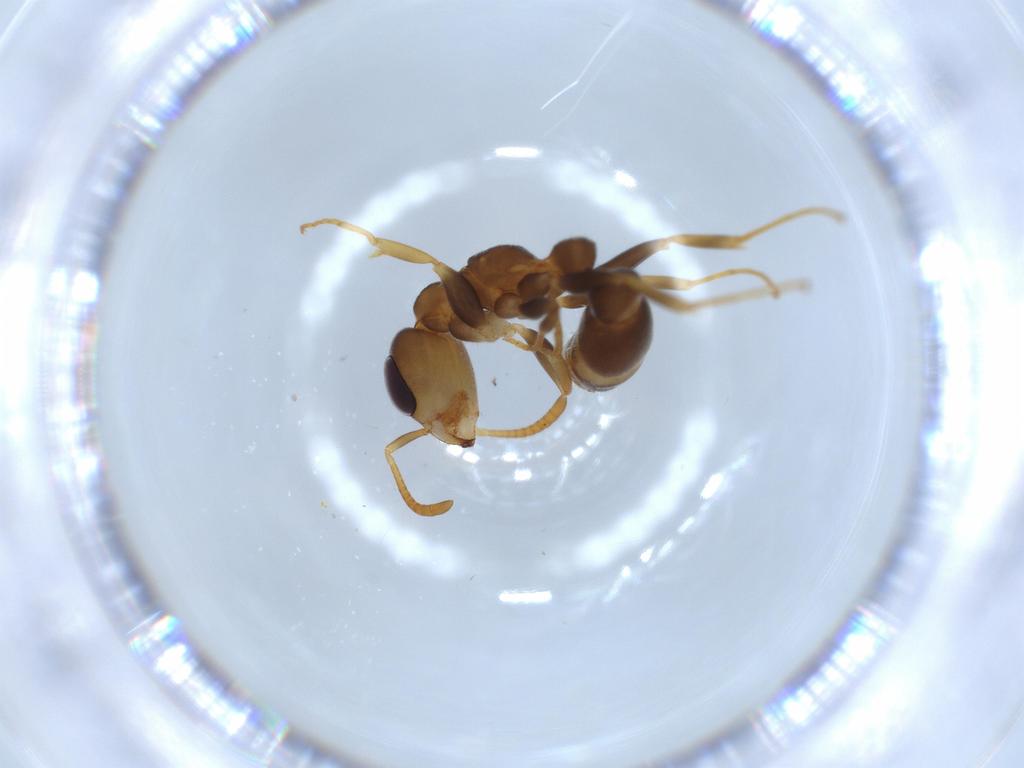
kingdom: Animalia
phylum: Arthropoda
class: Insecta
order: Hymenoptera
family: Formicidae
